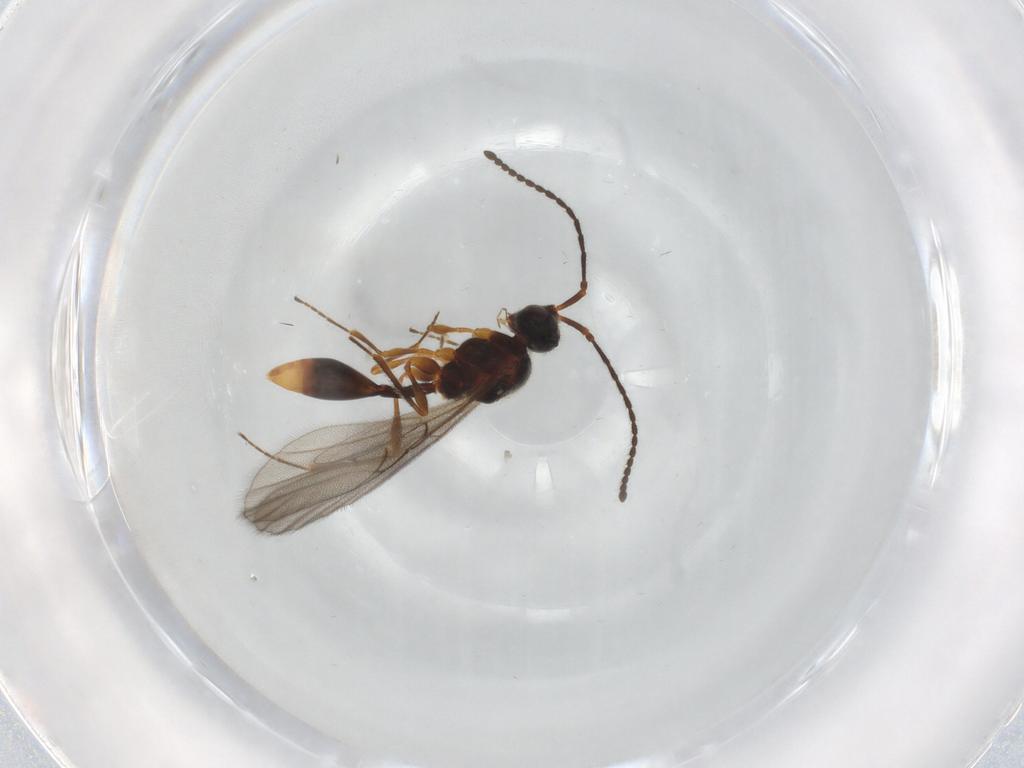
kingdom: Animalia
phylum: Arthropoda
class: Insecta
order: Hymenoptera
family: Diapriidae
